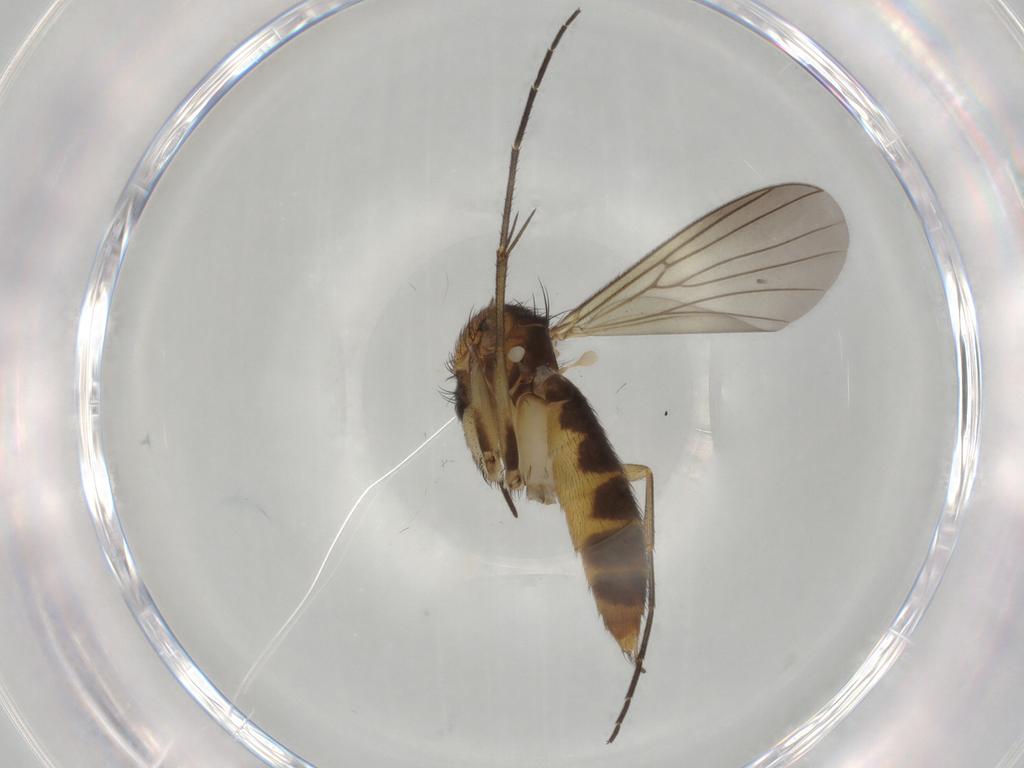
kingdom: Animalia
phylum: Arthropoda
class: Insecta
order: Diptera
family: Mycetophilidae
